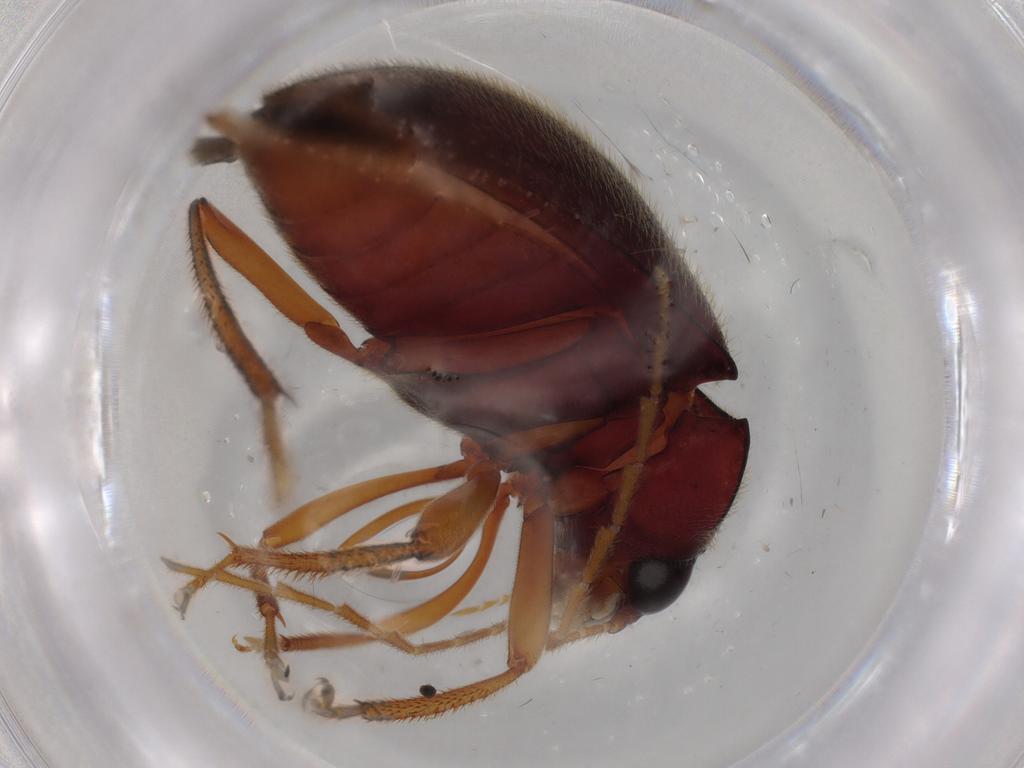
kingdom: Animalia
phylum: Arthropoda
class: Insecta
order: Coleoptera
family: Ptilodactylidae
